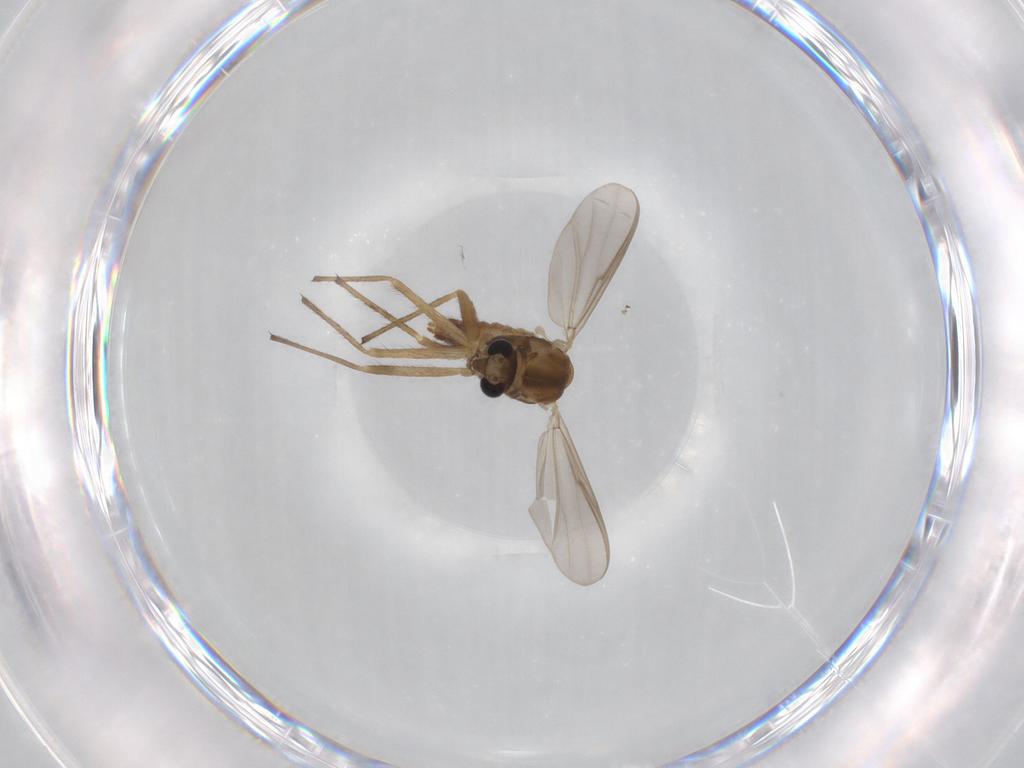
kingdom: Animalia
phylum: Arthropoda
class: Insecta
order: Diptera
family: Chironomidae
